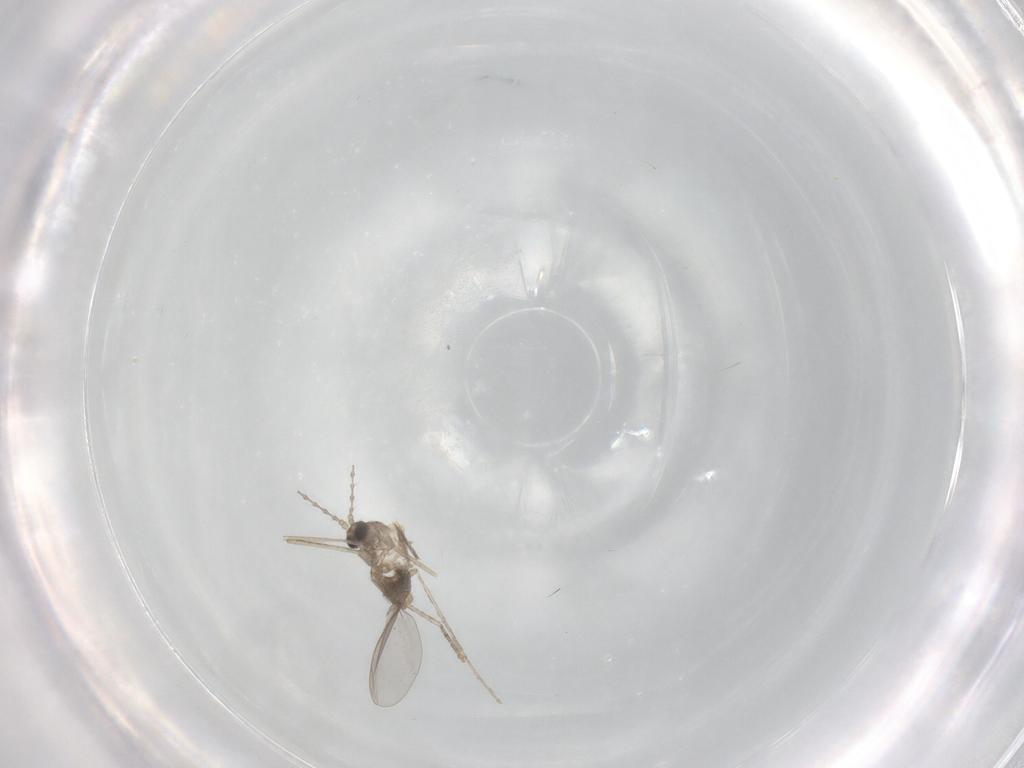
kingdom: Animalia
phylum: Arthropoda
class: Insecta
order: Diptera
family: Cecidomyiidae
